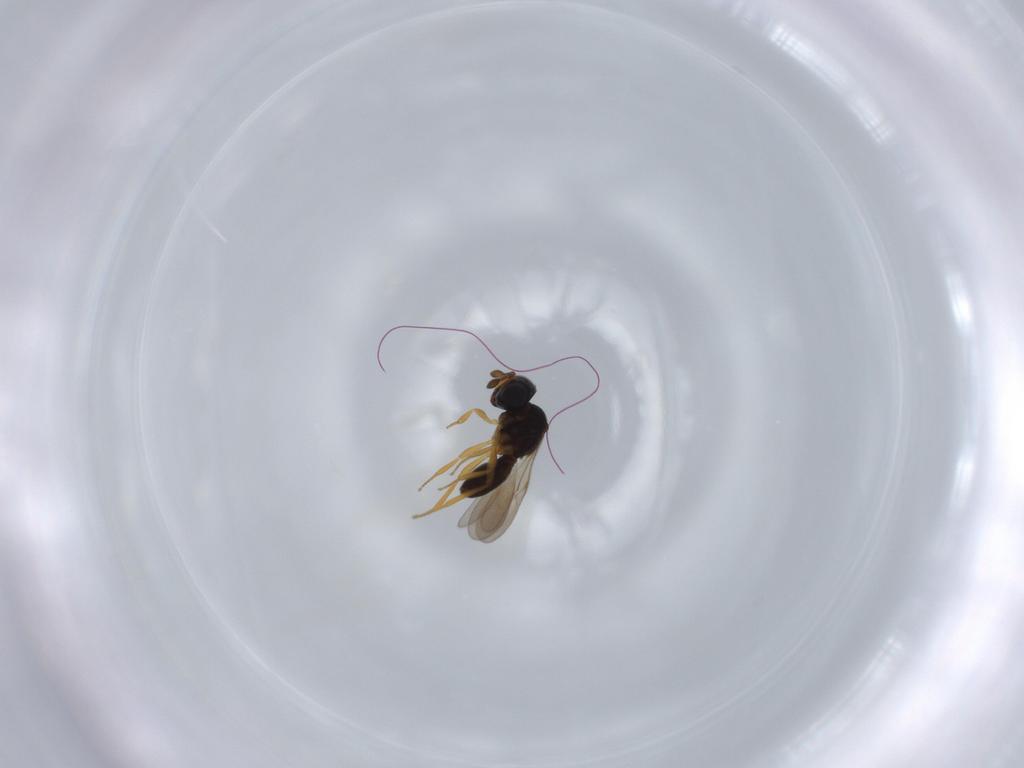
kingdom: Animalia
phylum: Arthropoda
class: Insecta
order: Hymenoptera
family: Scelionidae
